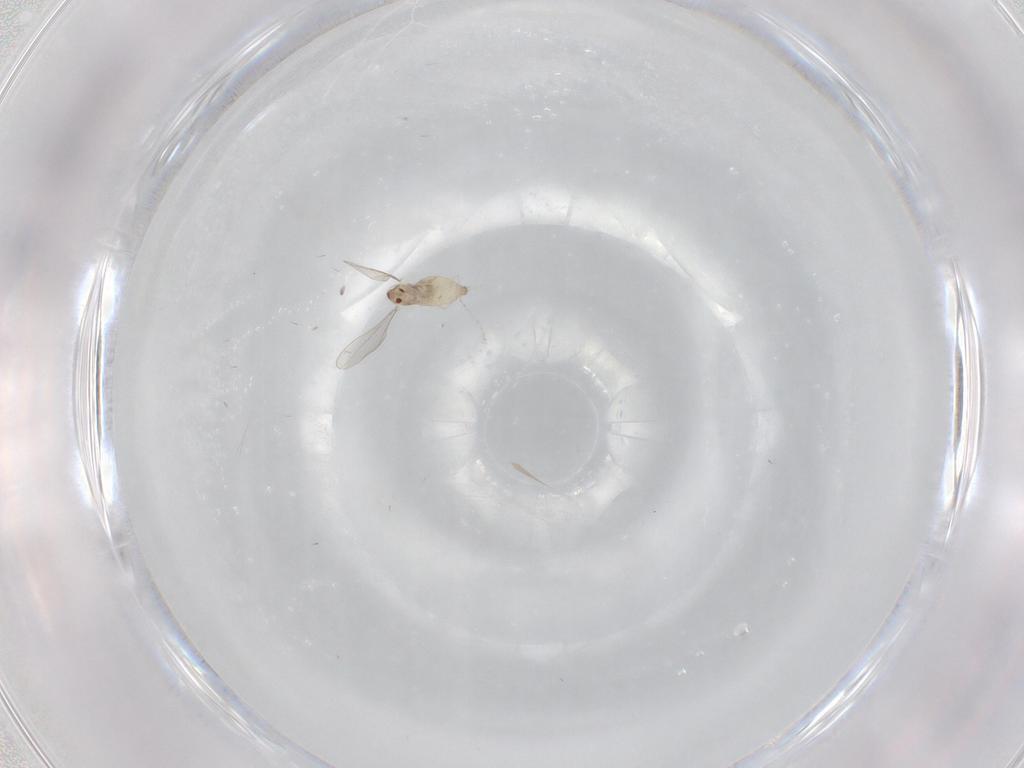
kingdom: Animalia
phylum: Arthropoda
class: Insecta
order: Diptera
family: Cecidomyiidae
